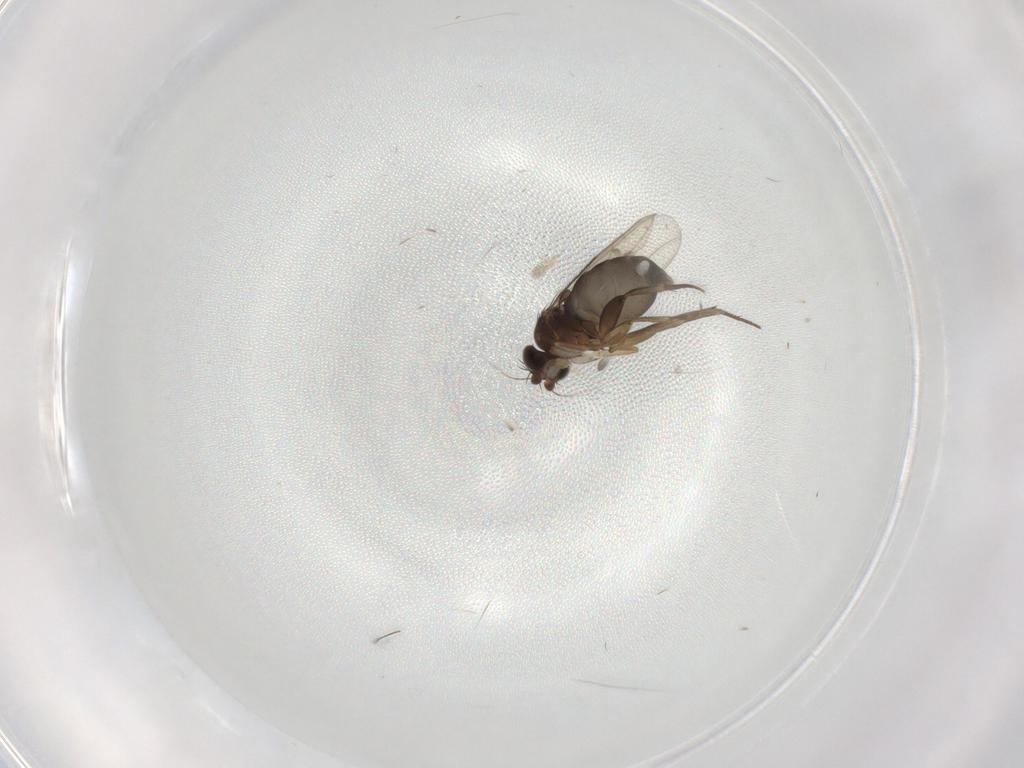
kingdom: Animalia
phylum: Arthropoda
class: Insecta
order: Diptera
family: Phoridae
